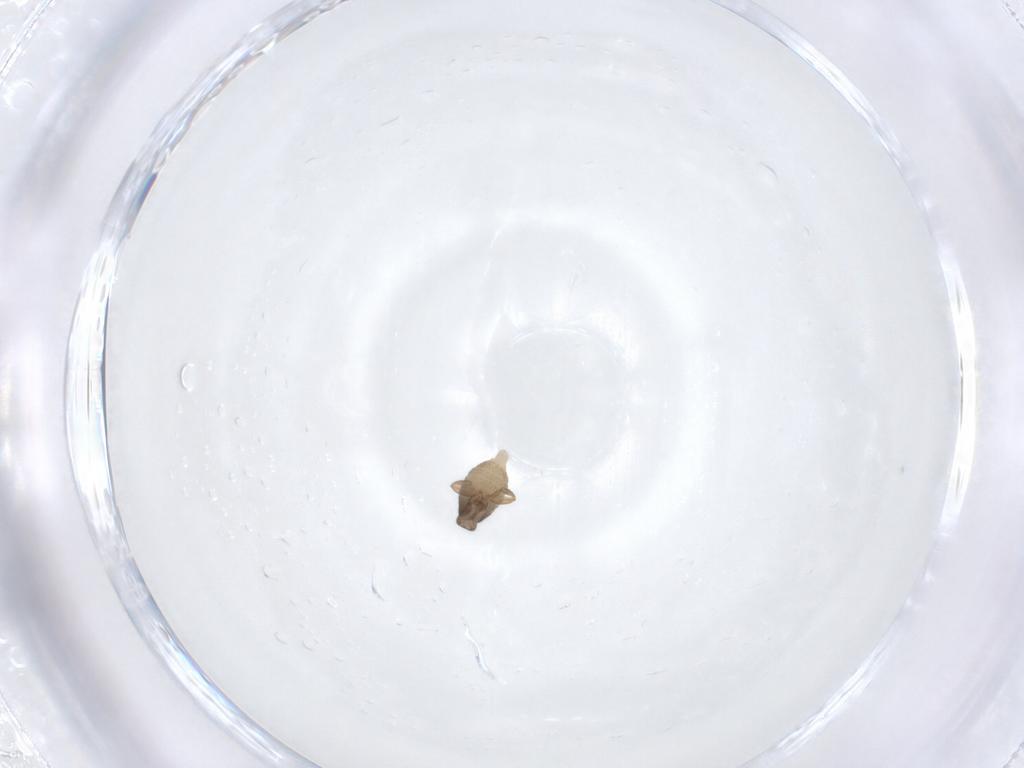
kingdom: Animalia
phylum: Arthropoda
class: Insecta
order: Diptera
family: Phoridae
